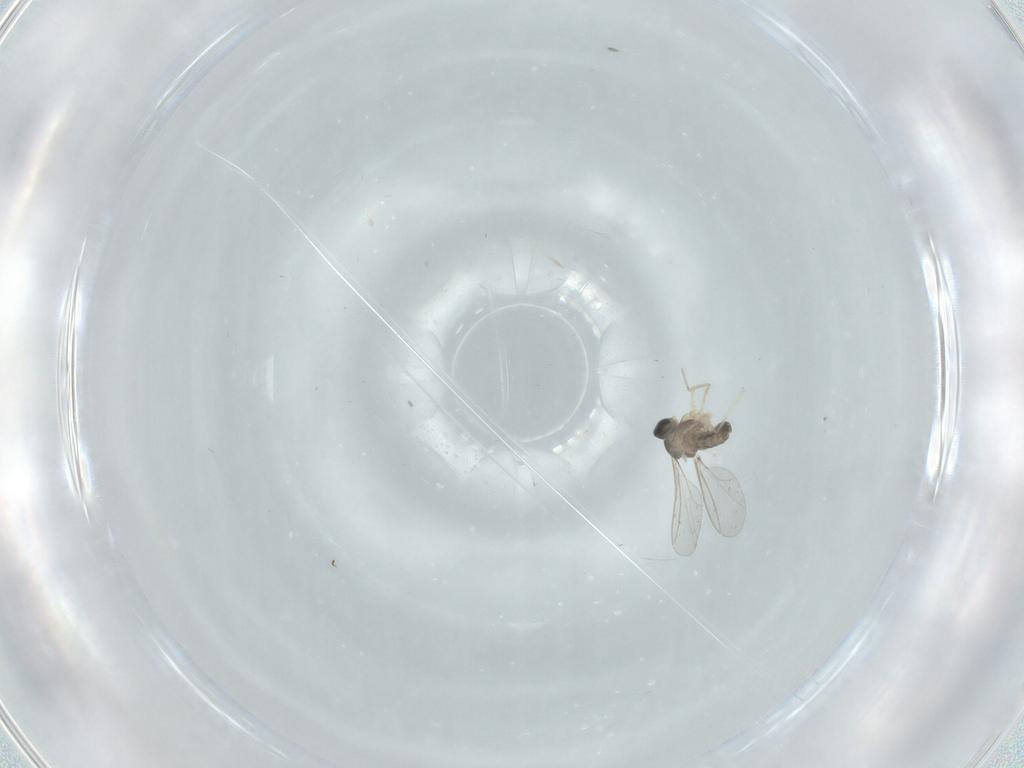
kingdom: Animalia
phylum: Arthropoda
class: Insecta
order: Diptera
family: Cecidomyiidae
